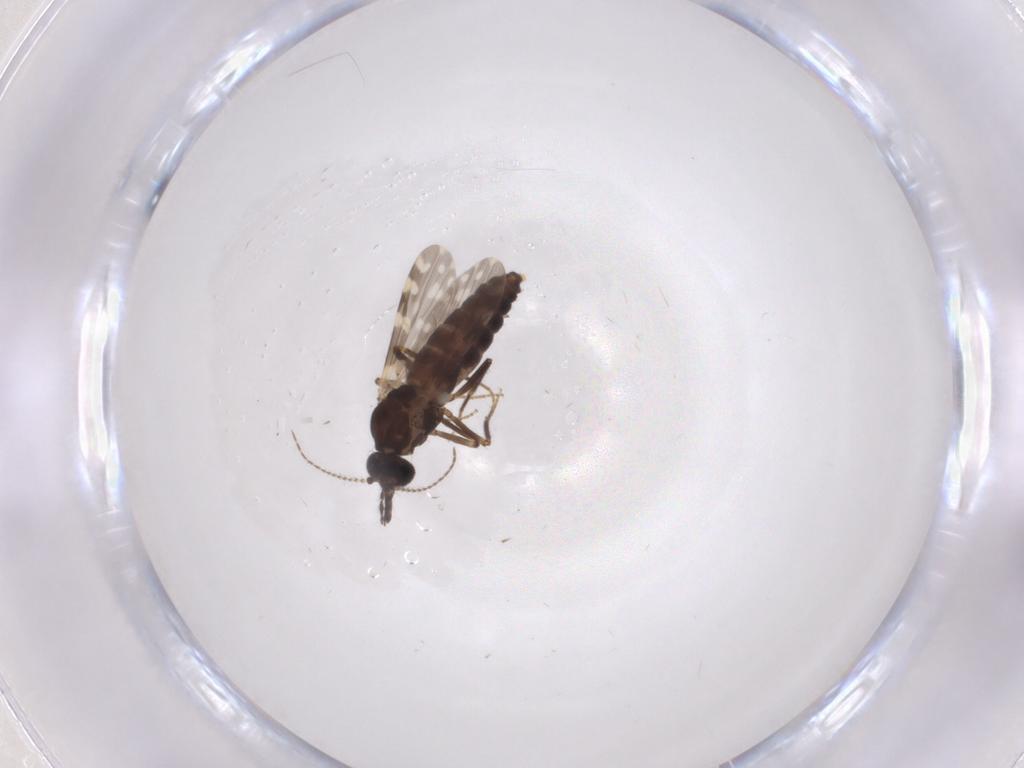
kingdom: Animalia
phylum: Arthropoda
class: Insecta
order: Diptera
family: Ceratopogonidae
